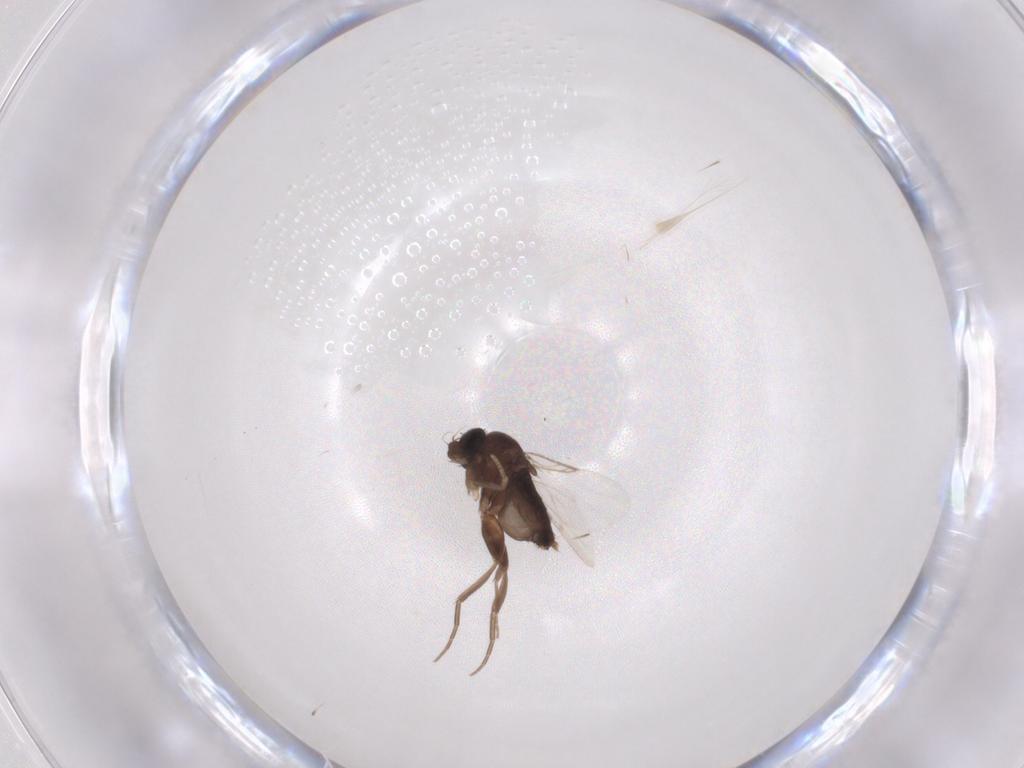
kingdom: Animalia
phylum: Arthropoda
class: Insecta
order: Diptera
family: Phoridae
